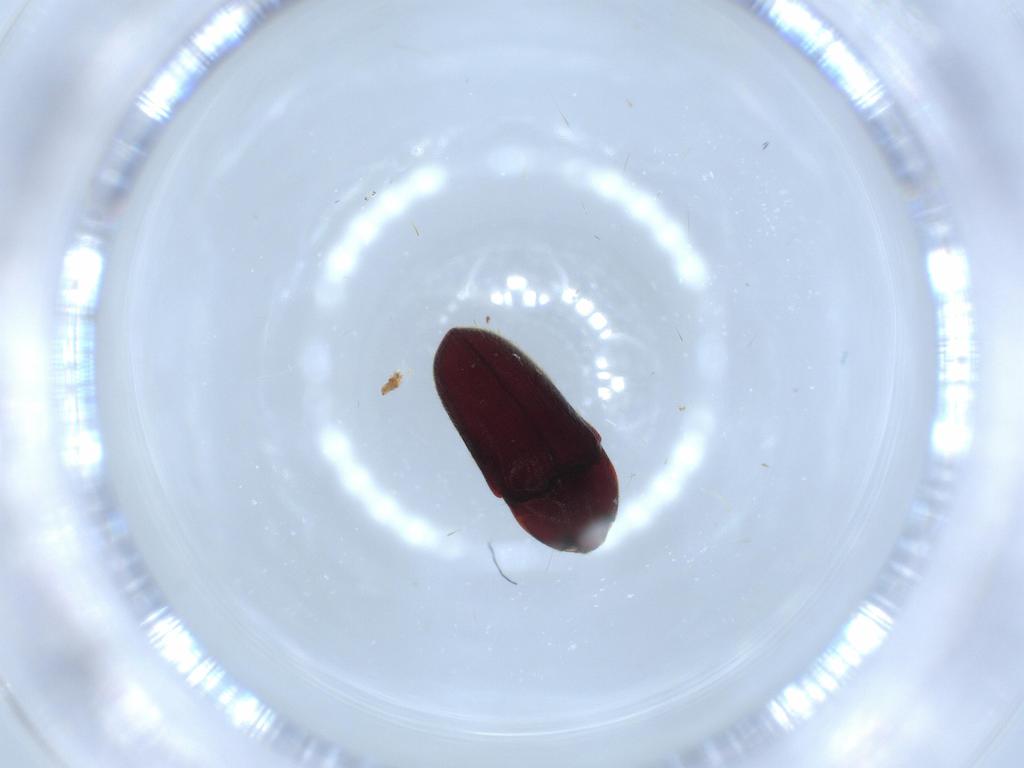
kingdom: Animalia
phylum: Arthropoda
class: Insecta
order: Coleoptera
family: Throscidae
